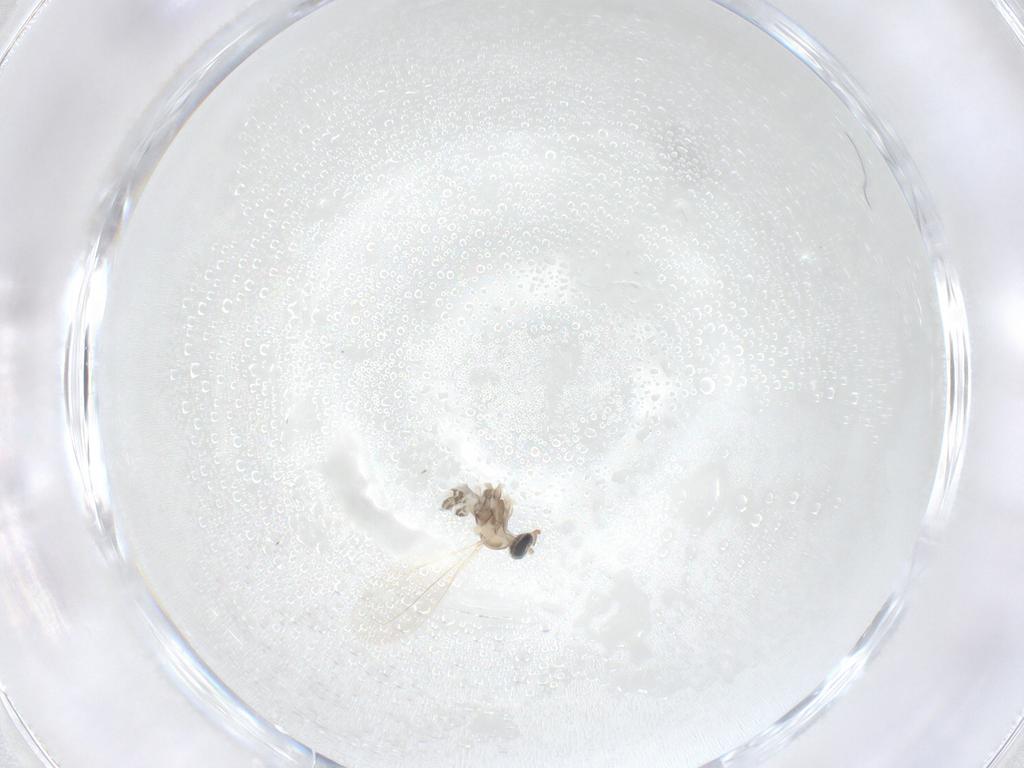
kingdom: Animalia
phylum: Arthropoda
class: Insecta
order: Diptera
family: Cecidomyiidae
